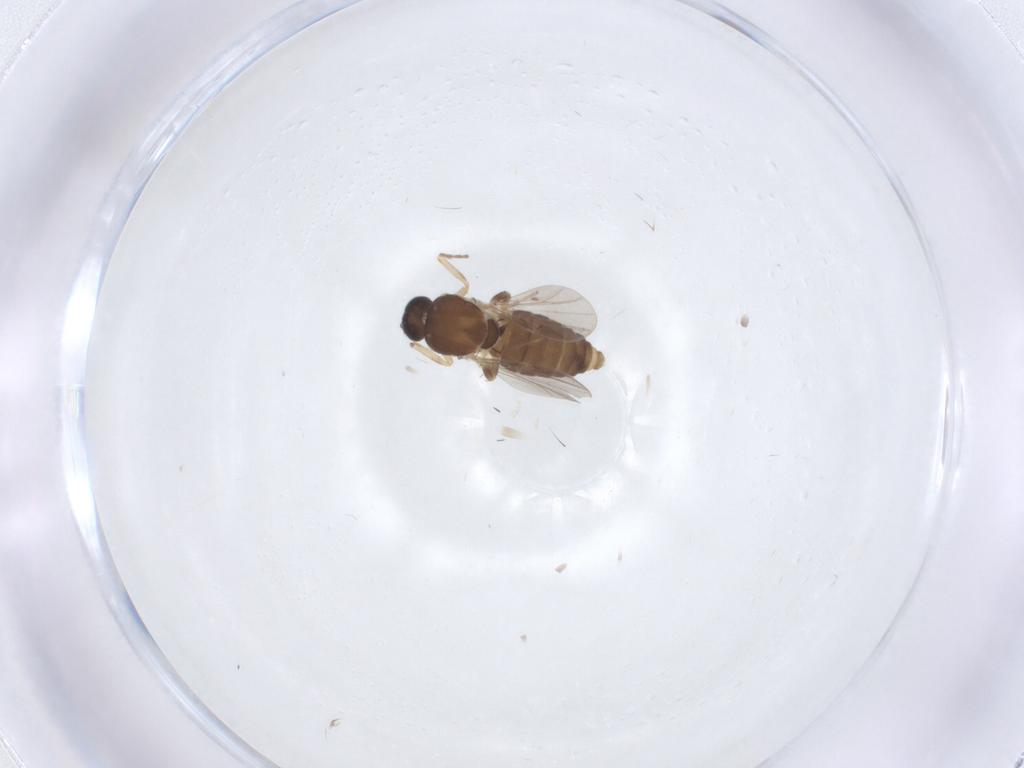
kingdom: Animalia
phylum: Arthropoda
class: Insecta
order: Diptera
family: Ceratopogonidae
